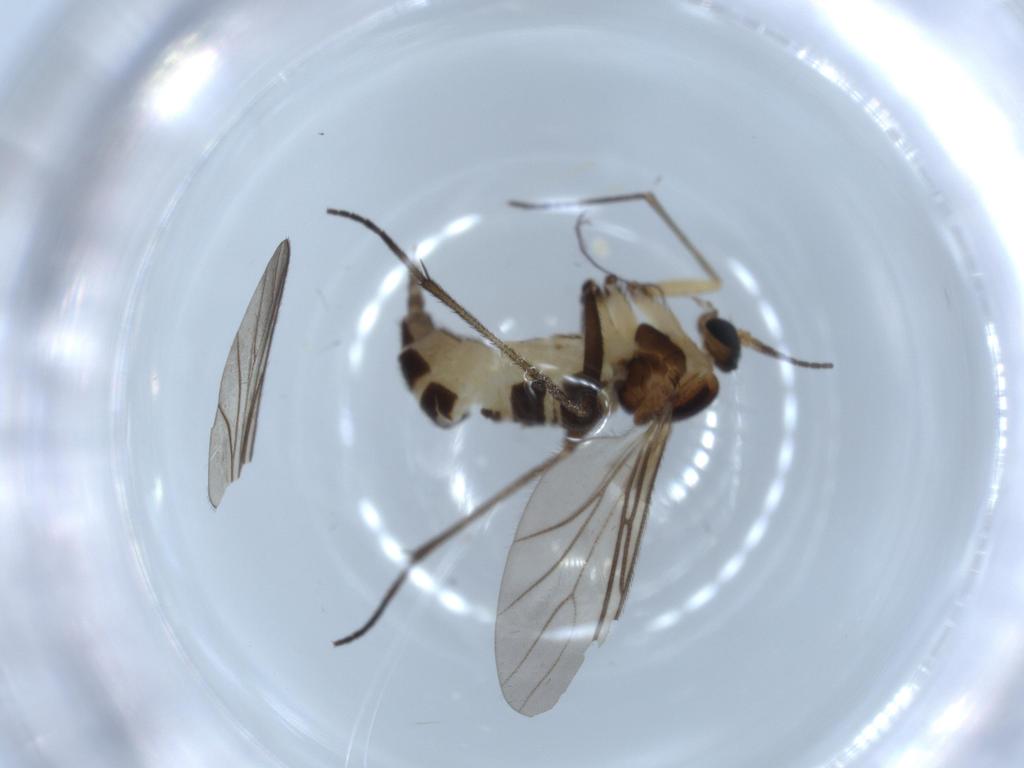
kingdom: Animalia
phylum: Arthropoda
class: Insecta
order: Diptera
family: Sciaridae
